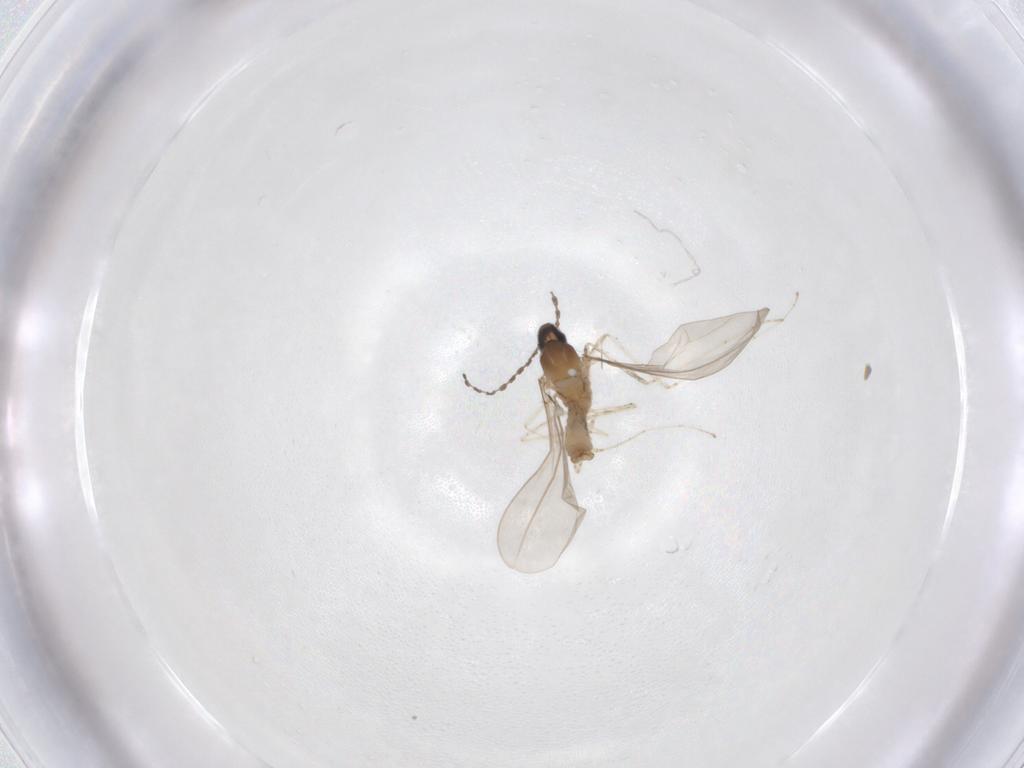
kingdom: Animalia
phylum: Arthropoda
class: Insecta
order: Diptera
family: Cecidomyiidae
